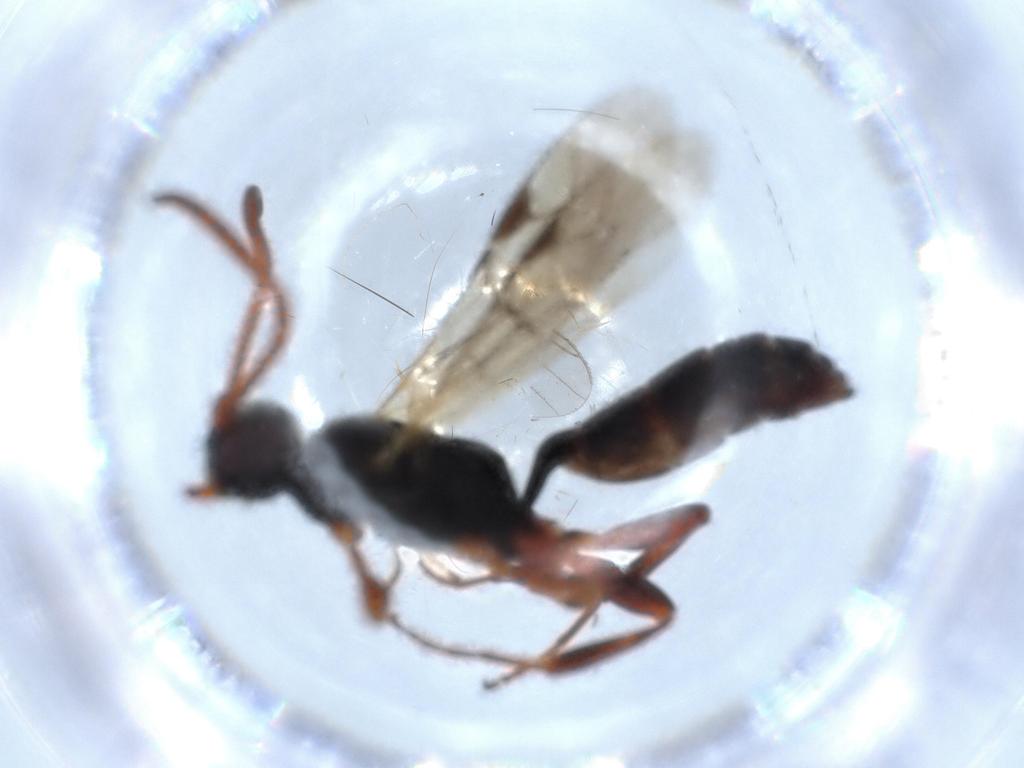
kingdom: Animalia
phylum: Arthropoda
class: Insecta
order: Hymenoptera
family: Ichneumonidae
